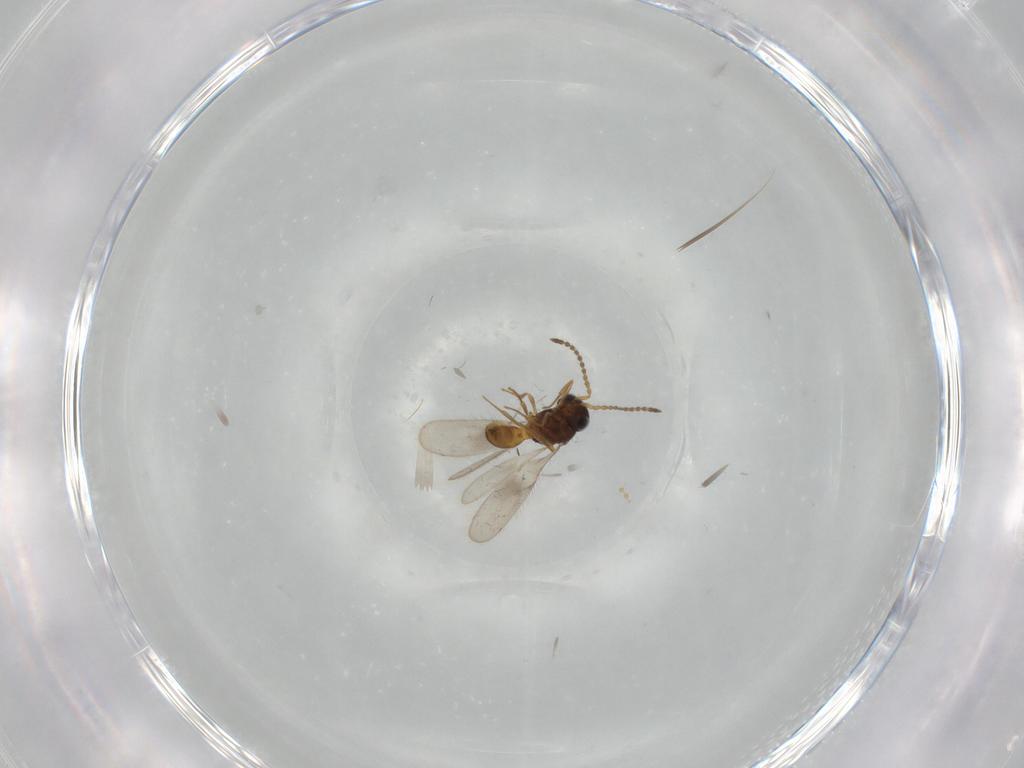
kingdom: Animalia
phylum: Arthropoda
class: Insecta
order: Hymenoptera
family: Scelionidae
